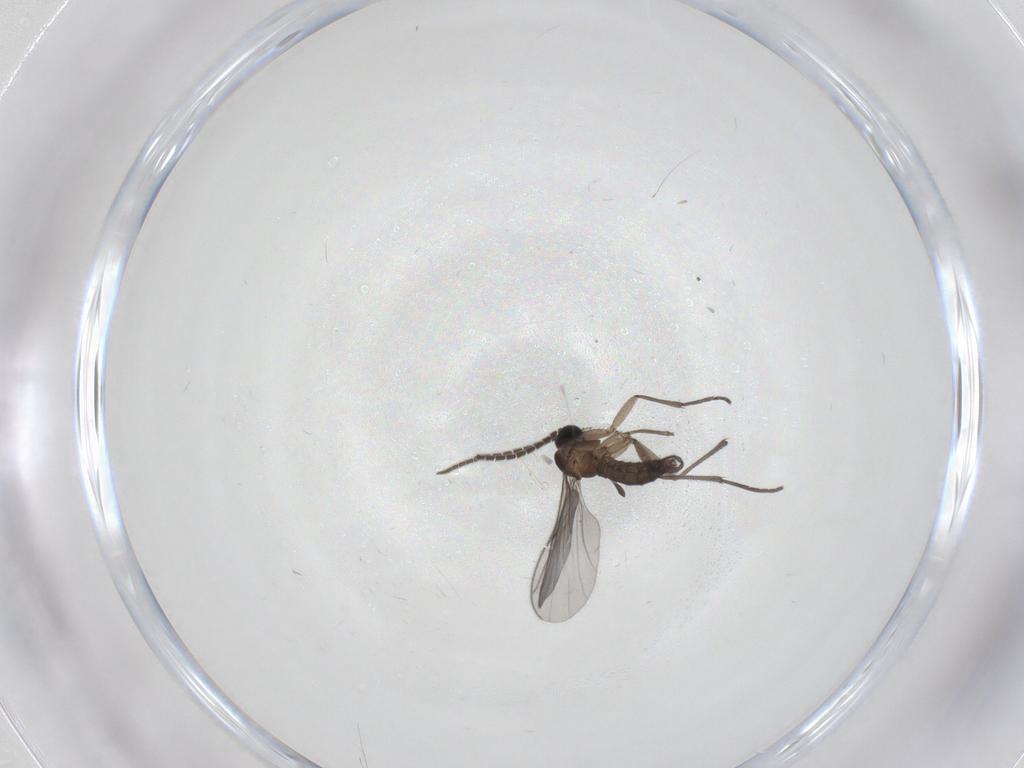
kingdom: Animalia
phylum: Arthropoda
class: Insecta
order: Diptera
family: Sciaridae
